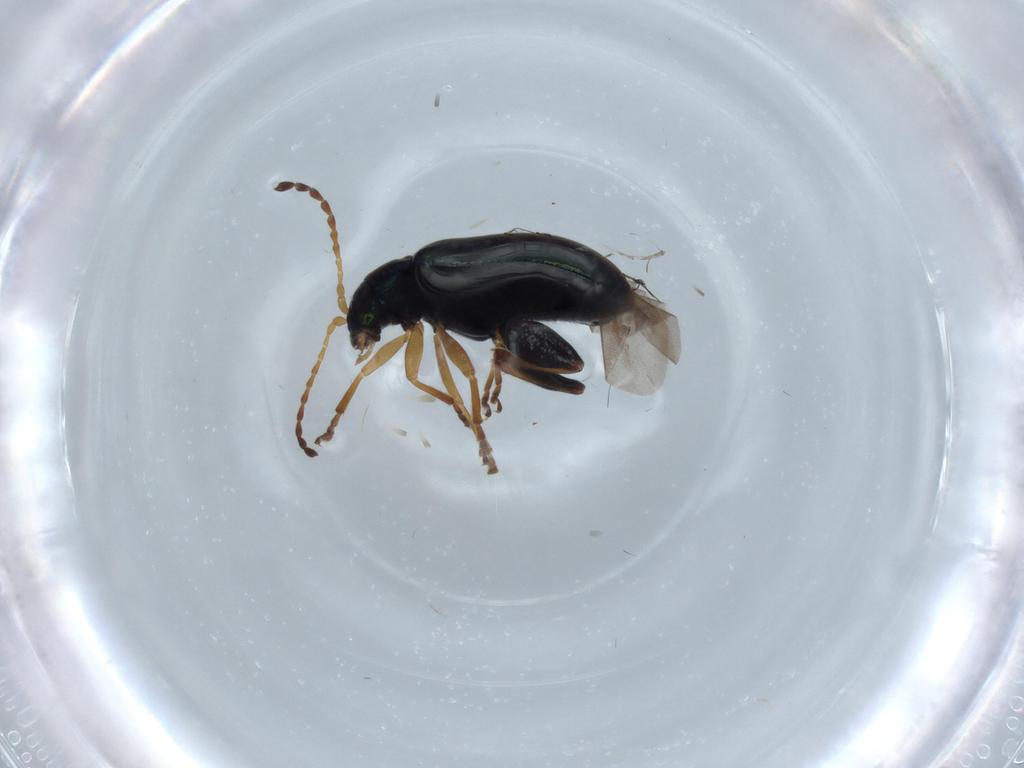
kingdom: Animalia
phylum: Arthropoda
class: Insecta
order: Coleoptera
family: Chrysomelidae
